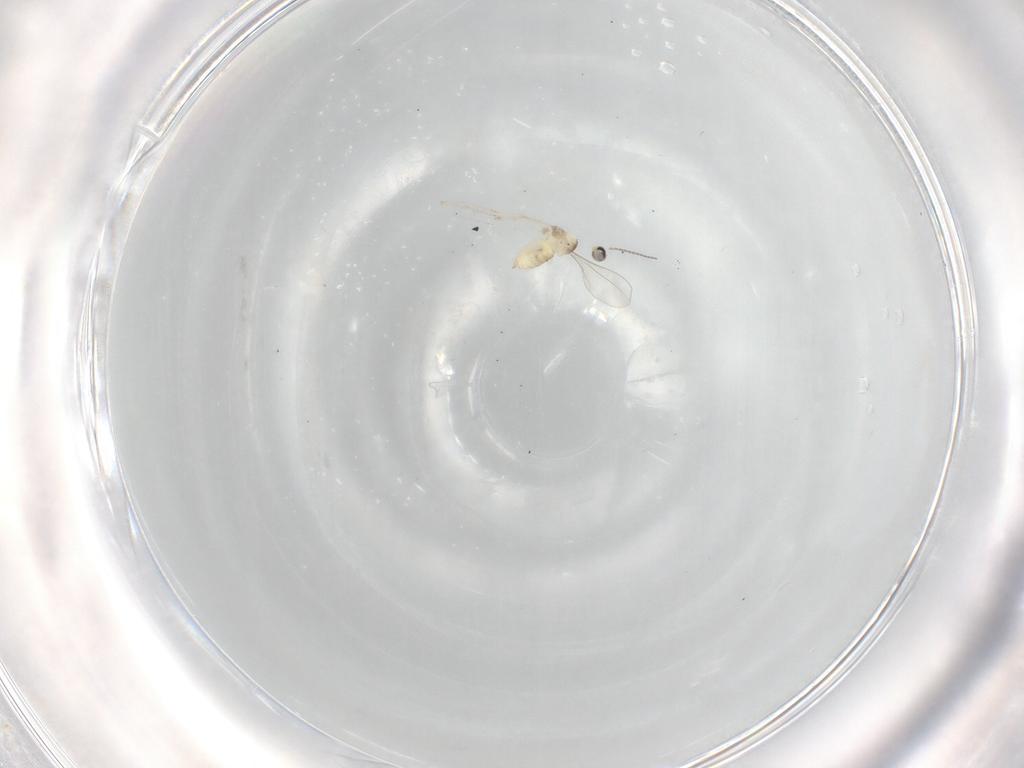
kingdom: Animalia
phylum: Arthropoda
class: Insecta
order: Diptera
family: Cecidomyiidae
